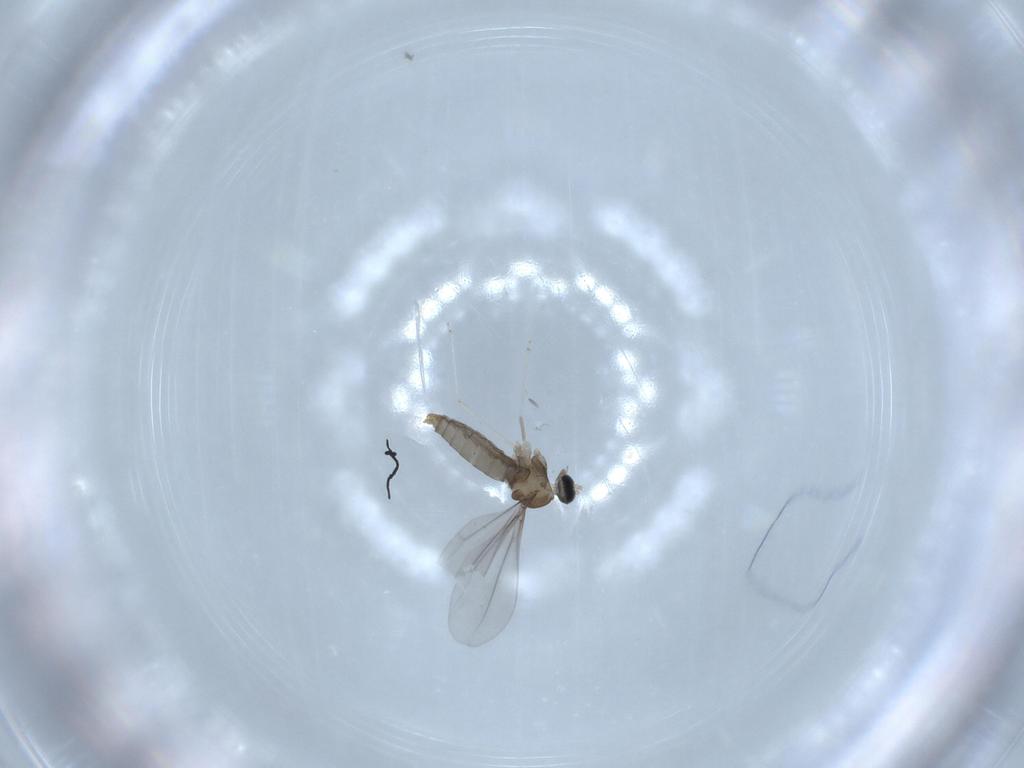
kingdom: Animalia
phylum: Arthropoda
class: Insecta
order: Diptera
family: Cecidomyiidae
